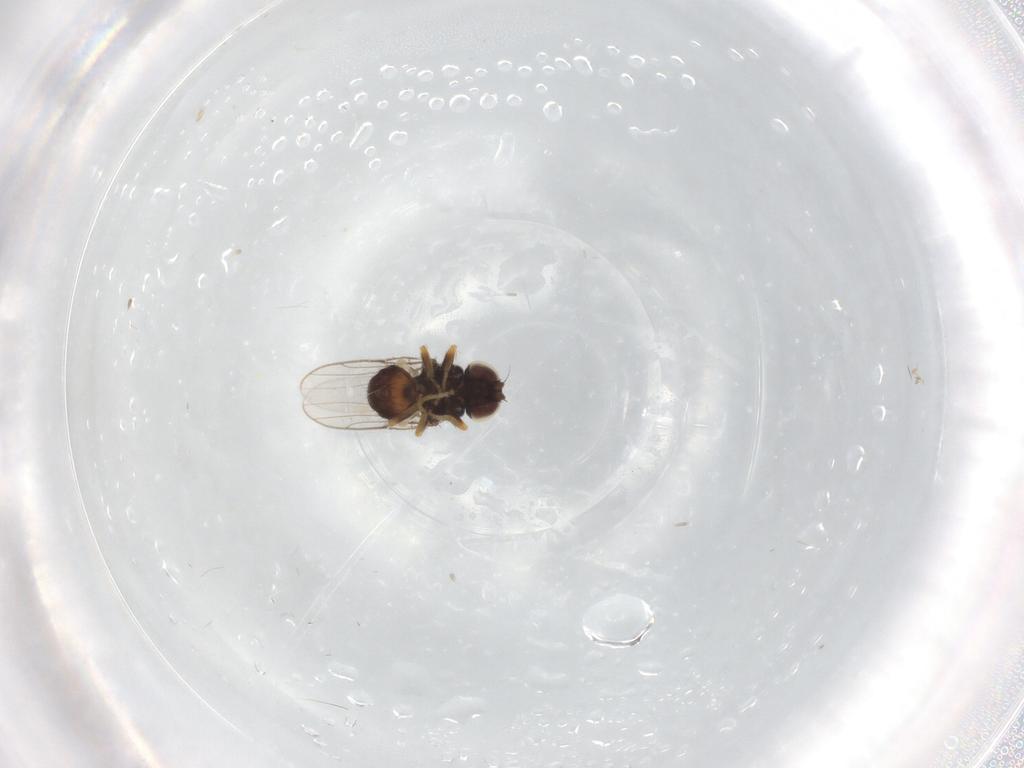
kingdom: Animalia
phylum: Arthropoda
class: Insecta
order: Diptera
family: Chloropidae
